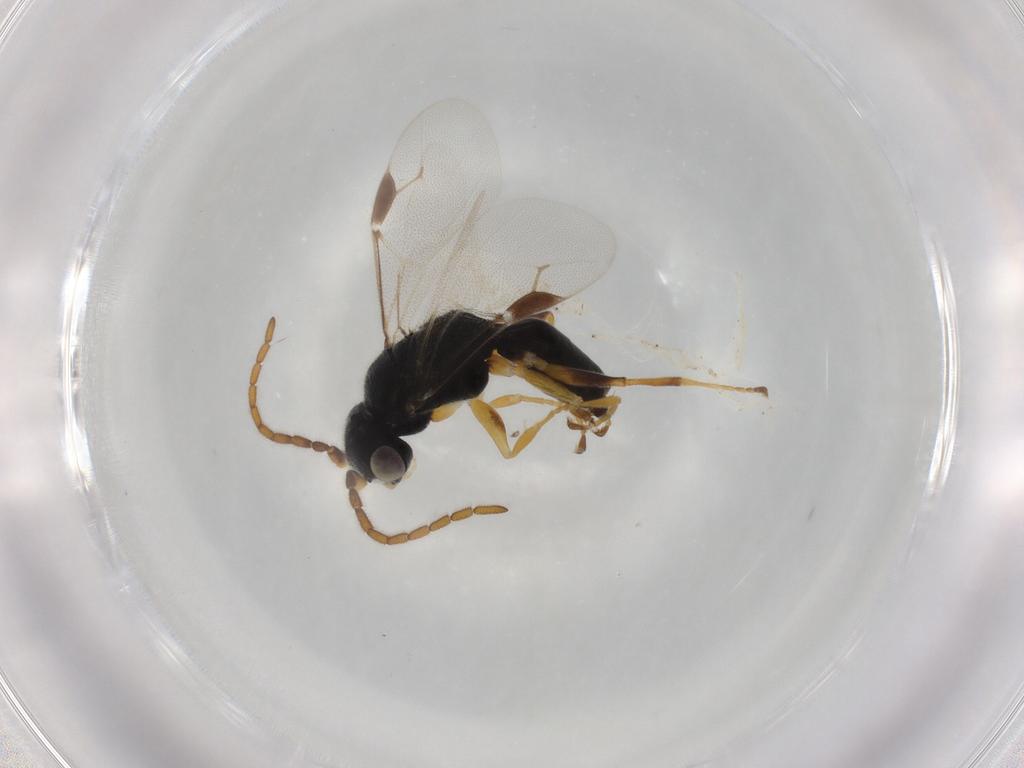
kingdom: Animalia
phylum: Arthropoda
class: Insecta
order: Hymenoptera
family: Dryinidae
